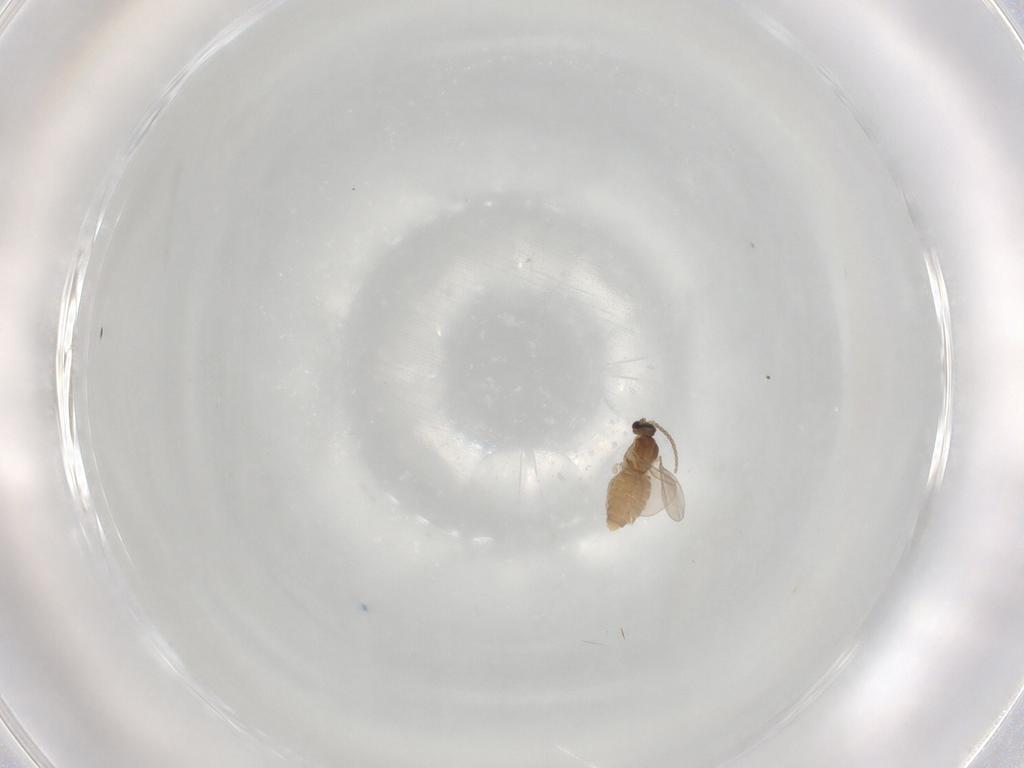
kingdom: Animalia
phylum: Arthropoda
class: Insecta
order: Diptera
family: Cecidomyiidae
